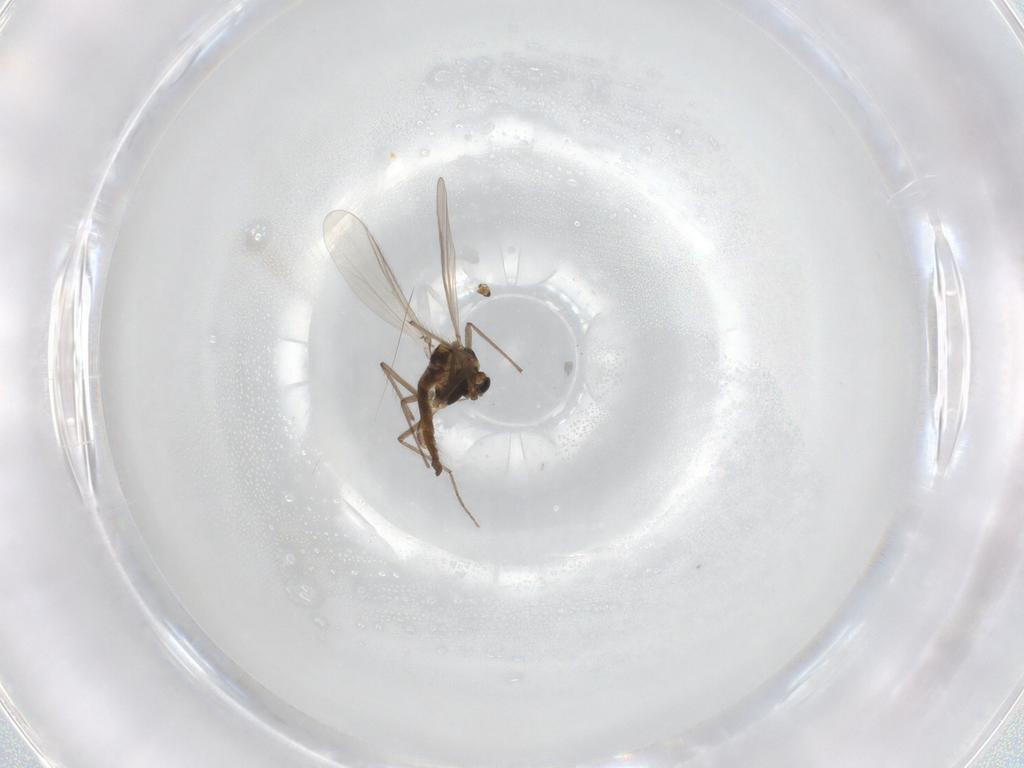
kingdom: Animalia
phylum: Arthropoda
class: Insecta
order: Diptera
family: Chironomidae
